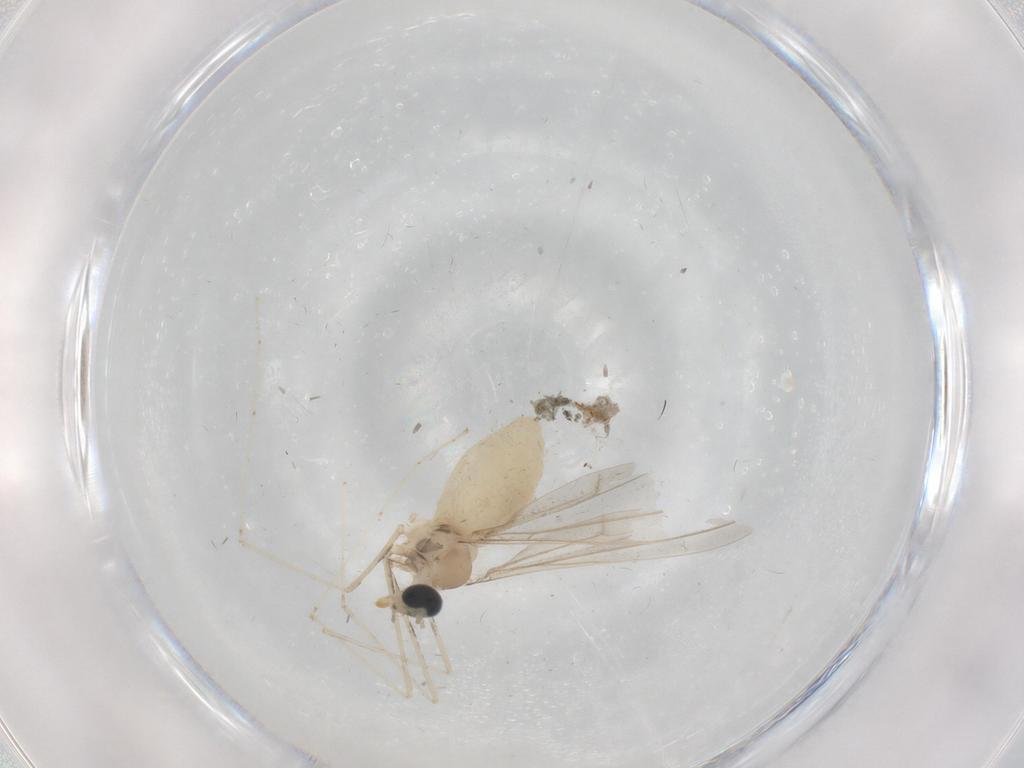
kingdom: Animalia
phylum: Arthropoda
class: Insecta
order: Diptera
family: Cecidomyiidae
